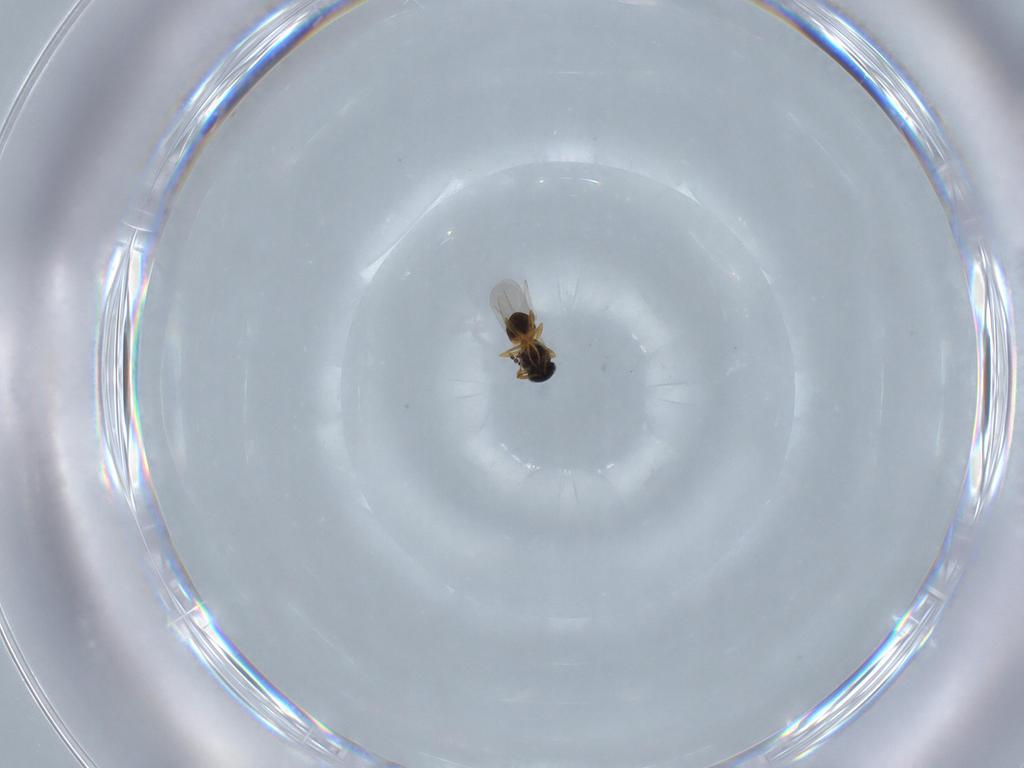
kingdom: Animalia
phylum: Arthropoda
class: Insecta
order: Hymenoptera
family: Platygastridae
